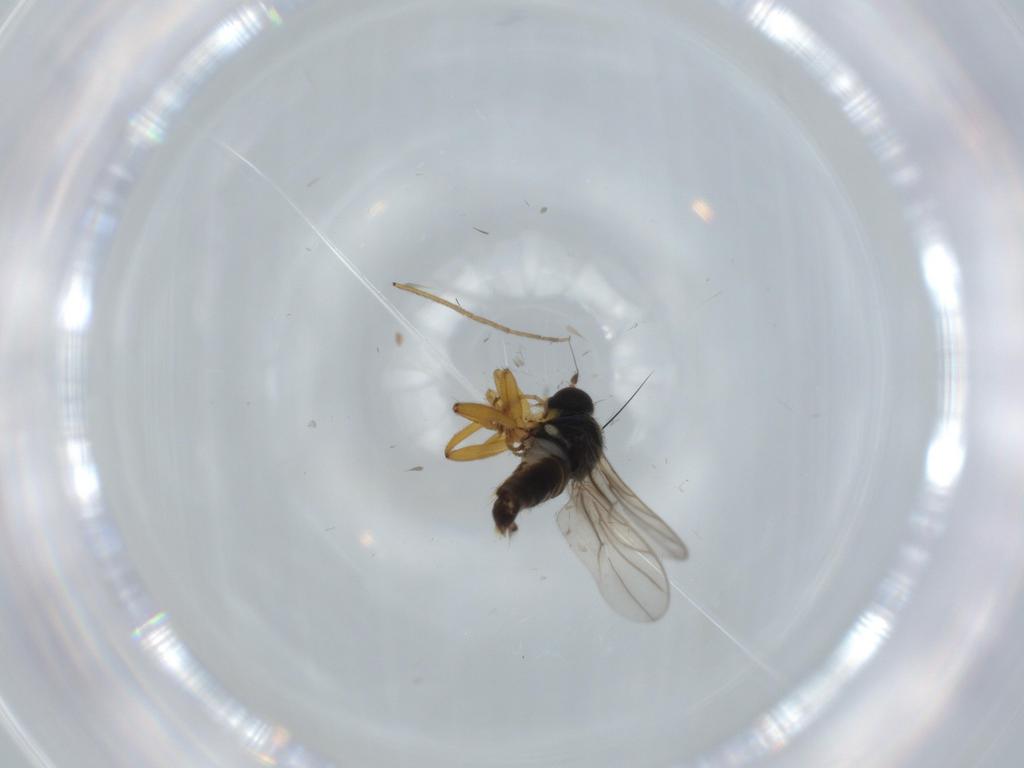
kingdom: Animalia
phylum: Arthropoda
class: Insecta
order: Diptera
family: Hybotidae
